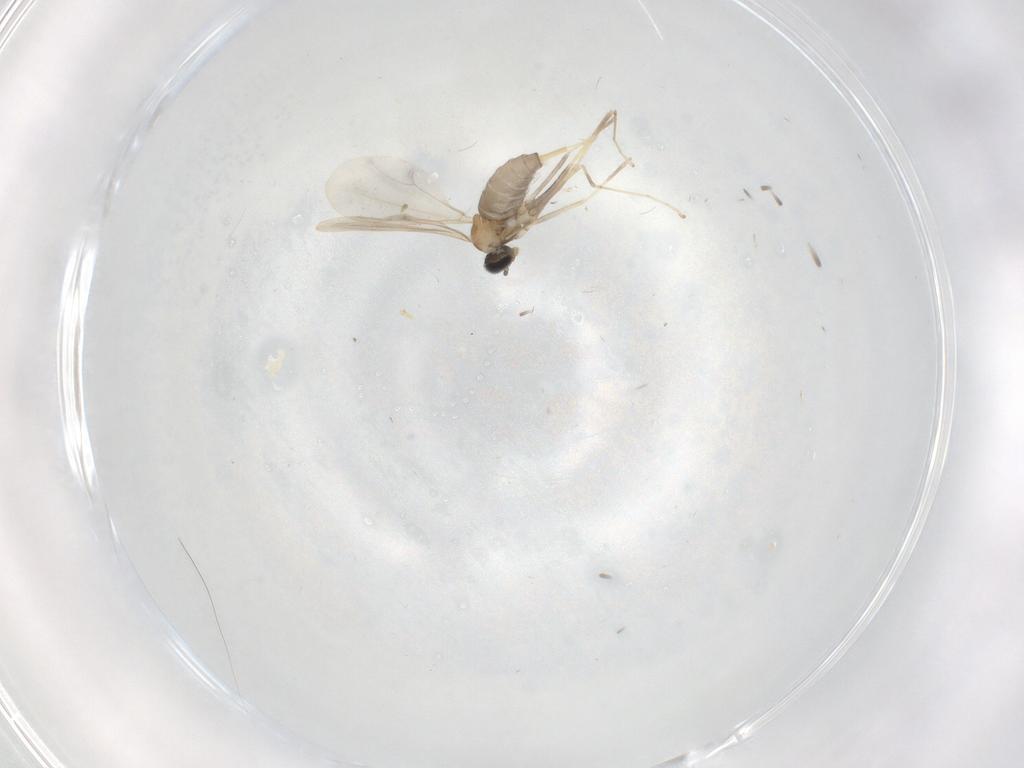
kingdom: Animalia
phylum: Arthropoda
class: Insecta
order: Diptera
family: Cecidomyiidae
